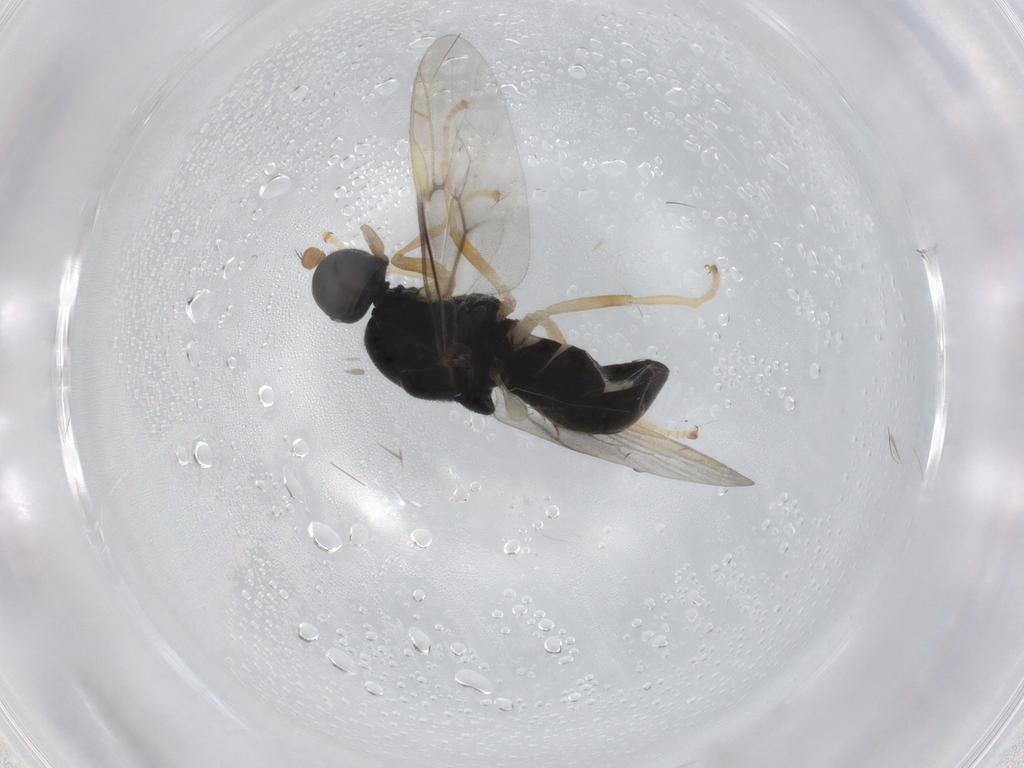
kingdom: Animalia
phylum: Arthropoda
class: Insecta
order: Diptera
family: Stratiomyidae
